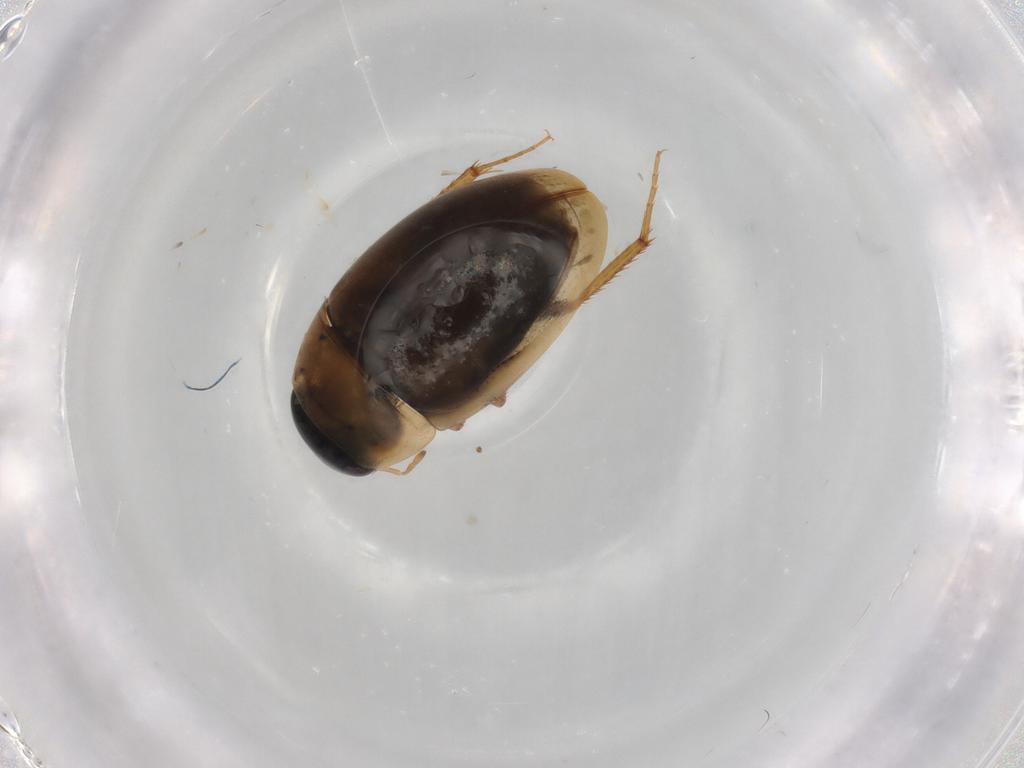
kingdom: Animalia
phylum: Arthropoda
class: Insecta
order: Coleoptera
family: Hydrophilidae
